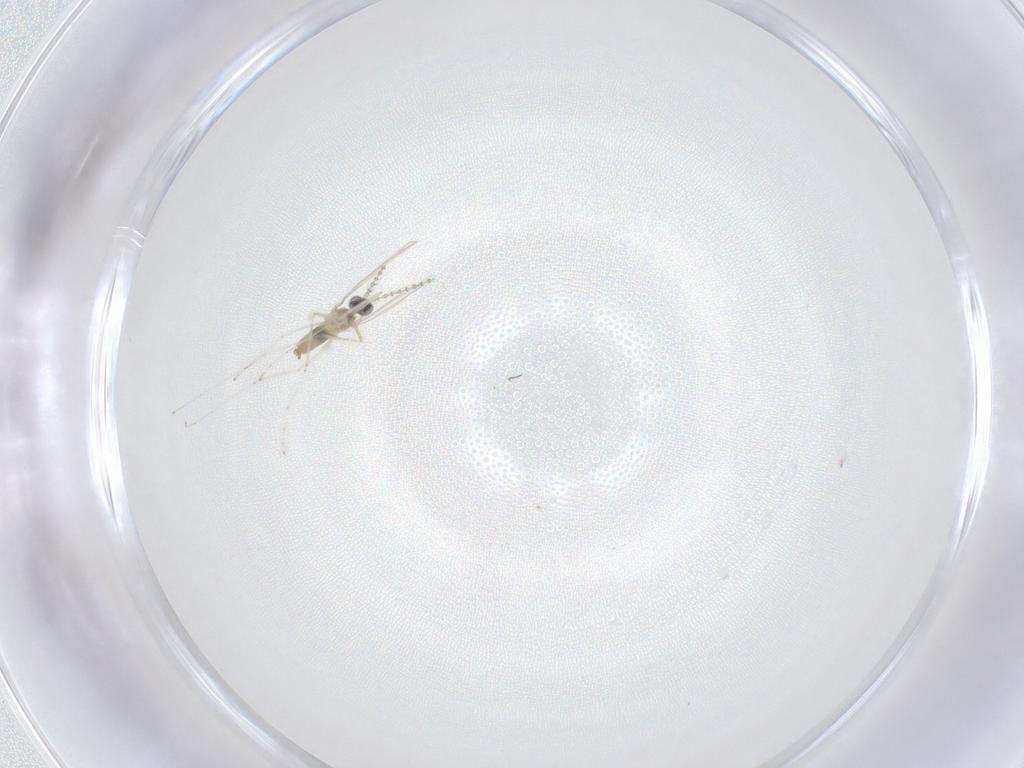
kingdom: Animalia
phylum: Arthropoda
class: Insecta
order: Diptera
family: Sciaridae
